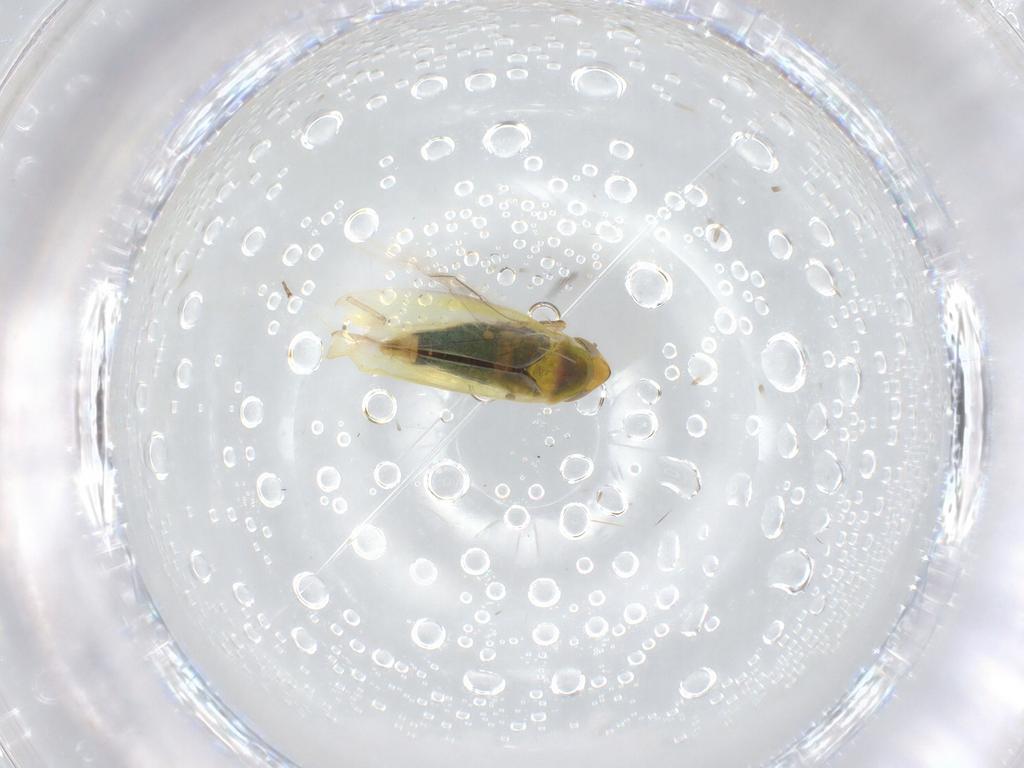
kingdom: Animalia
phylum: Arthropoda
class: Insecta
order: Hemiptera
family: Cicadellidae
